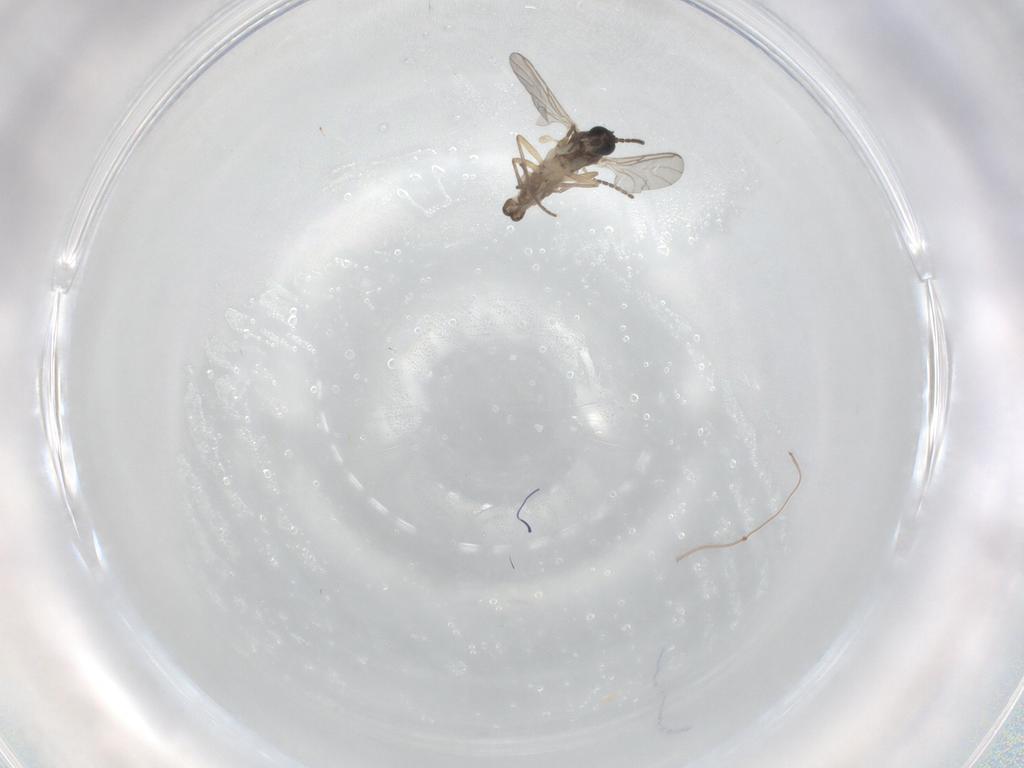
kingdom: Animalia
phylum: Arthropoda
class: Insecta
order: Diptera
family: Sciaridae
